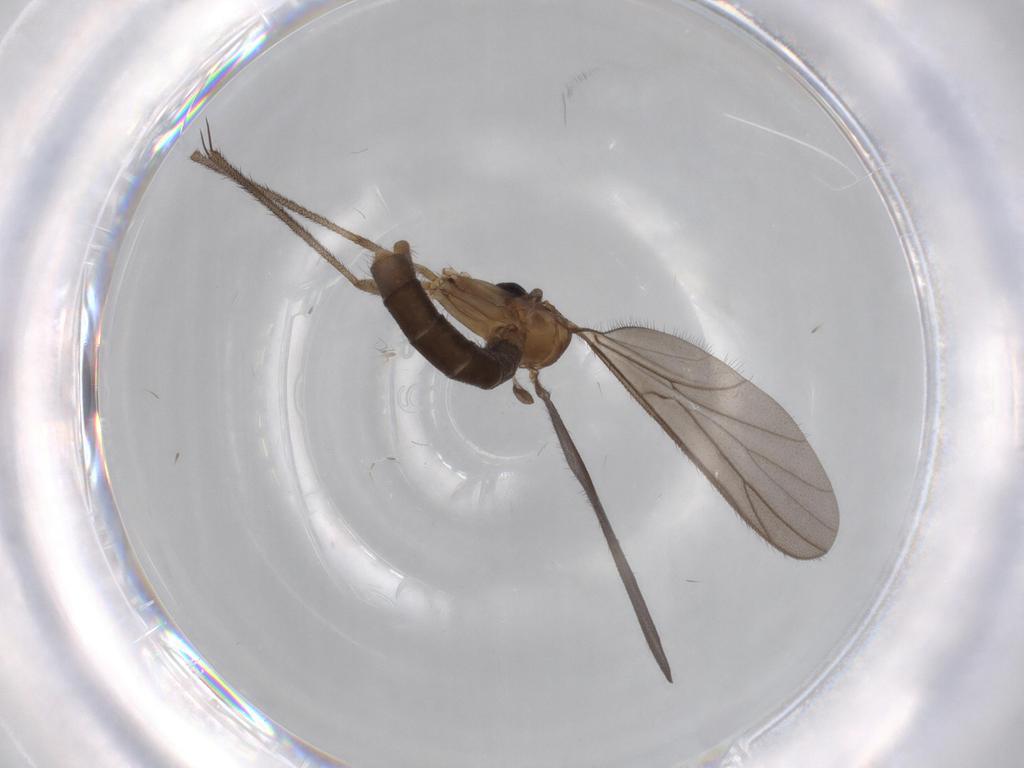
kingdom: Animalia
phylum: Arthropoda
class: Insecta
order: Diptera
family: Ditomyiidae
